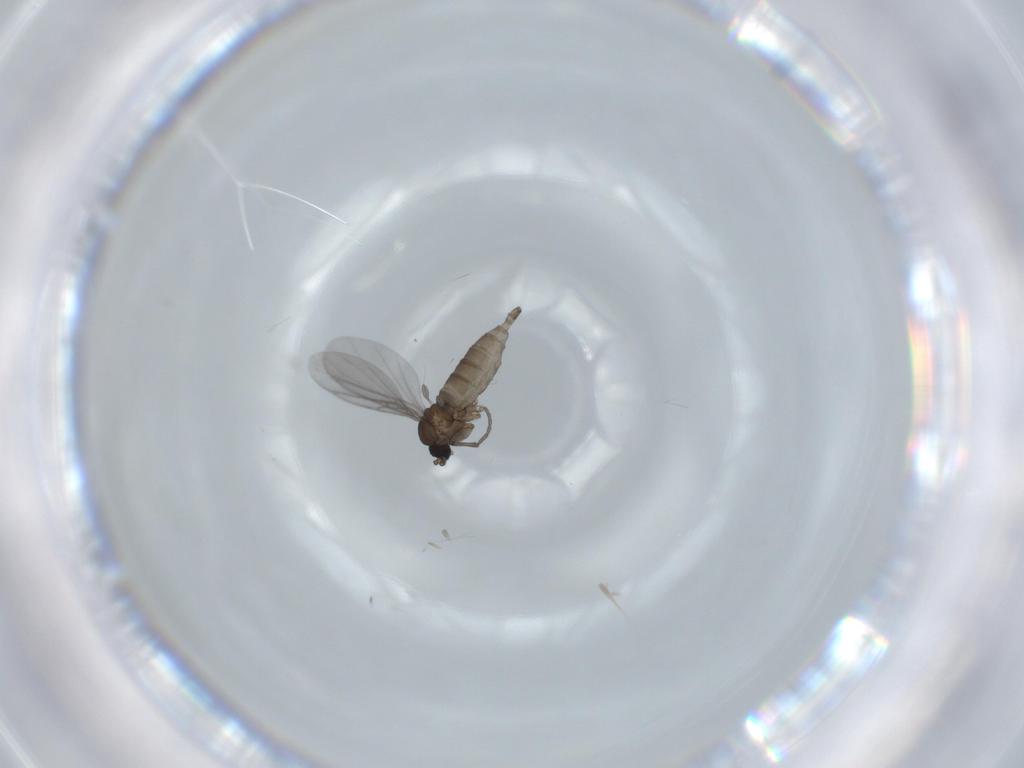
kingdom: Animalia
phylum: Arthropoda
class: Insecta
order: Diptera
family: Sciaridae
